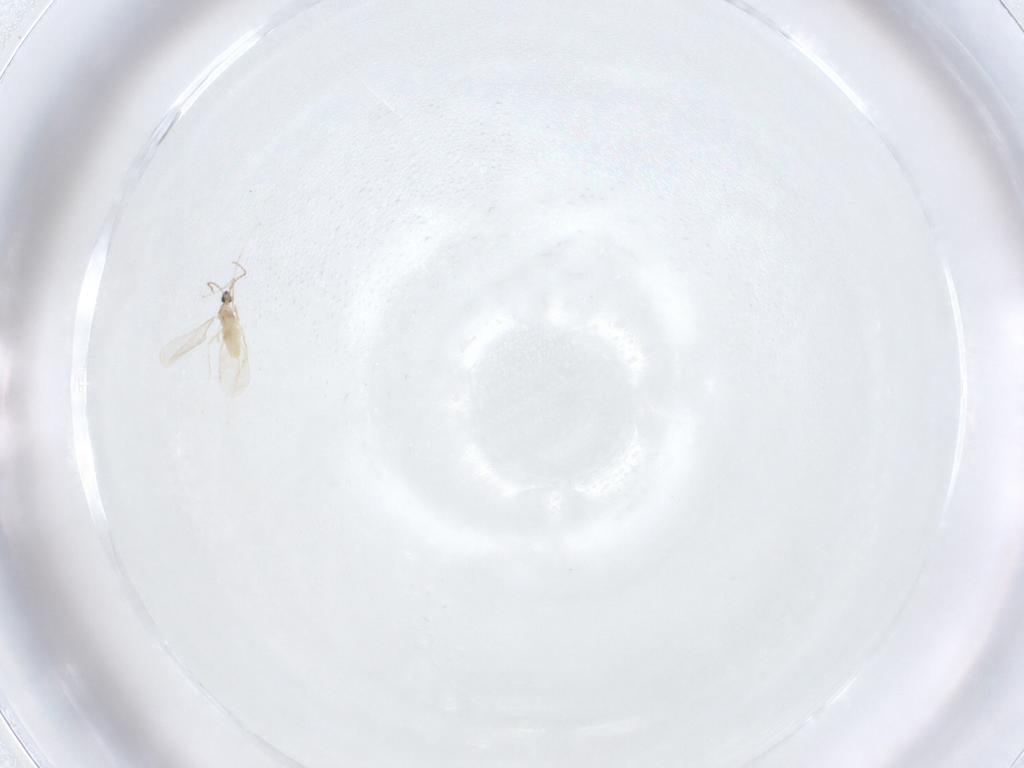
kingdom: Animalia
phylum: Arthropoda
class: Insecta
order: Diptera
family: Cecidomyiidae
